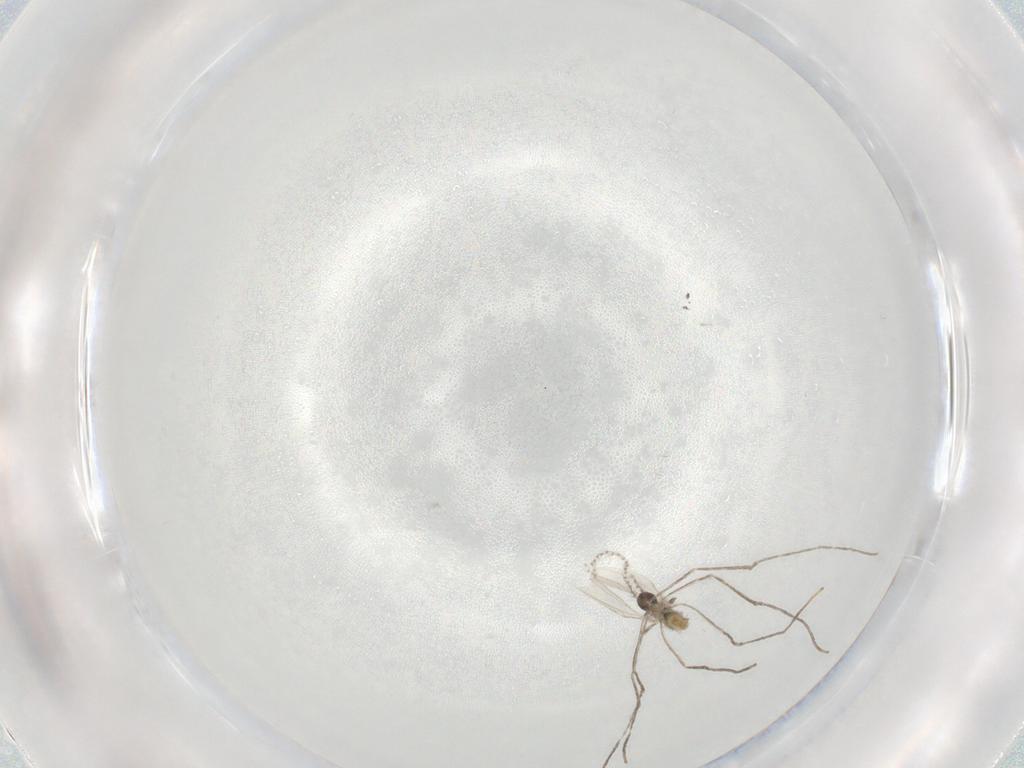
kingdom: Animalia
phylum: Arthropoda
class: Insecta
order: Diptera
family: Cecidomyiidae
